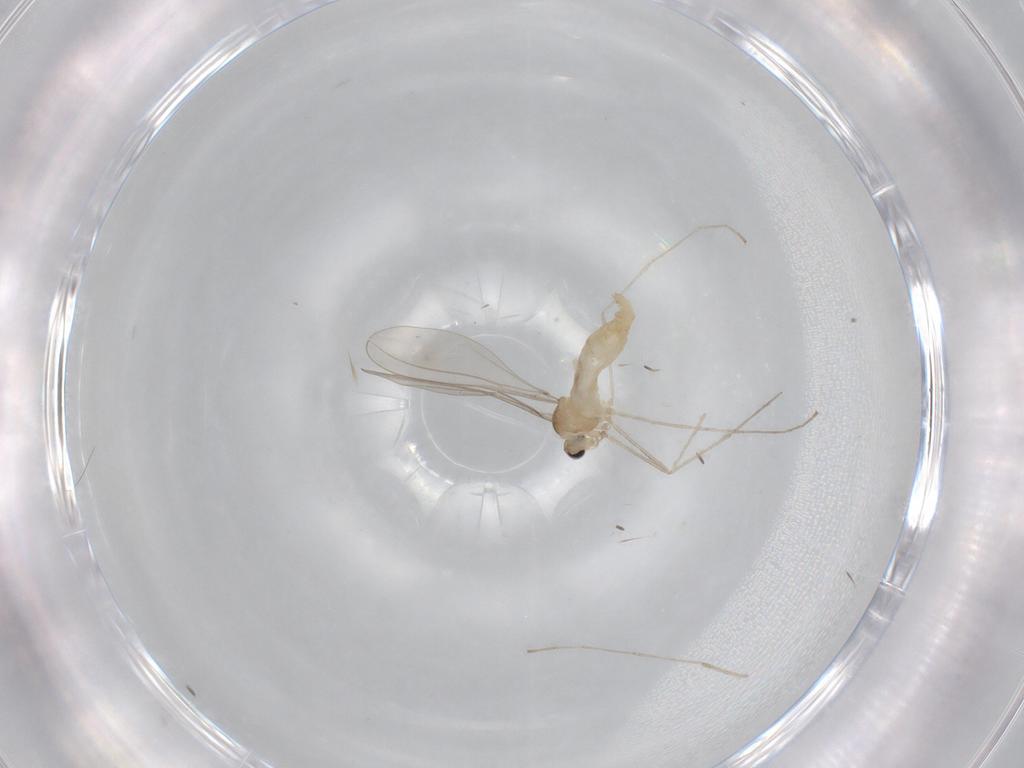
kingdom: Animalia
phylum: Arthropoda
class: Insecta
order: Diptera
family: Cecidomyiidae
